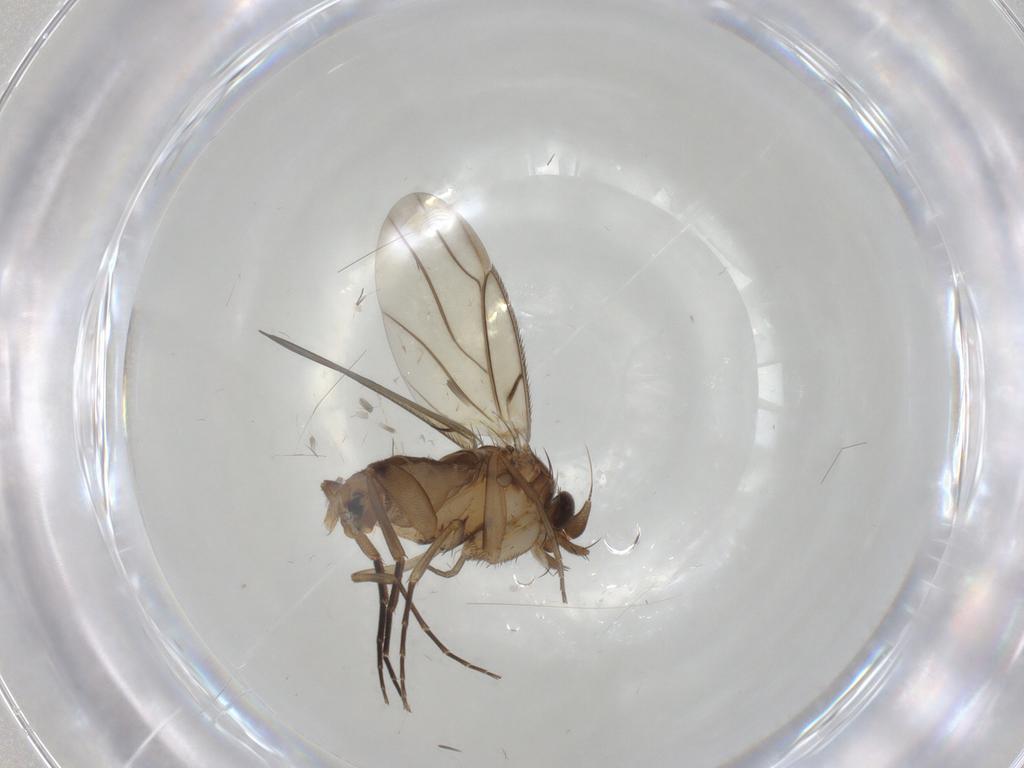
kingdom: Animalia
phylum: Arthropoda
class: Insecta
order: Diptera
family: Phoridae
